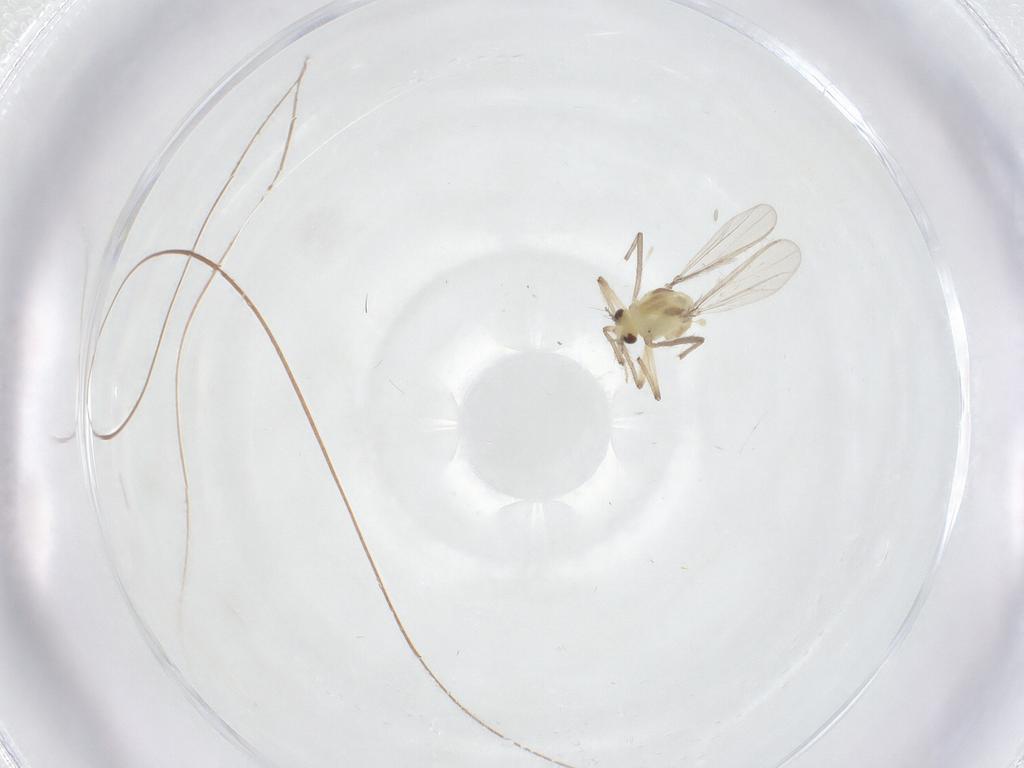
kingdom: Animalia
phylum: Arthropoda
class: Insecta
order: Diptera
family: Chironomidae
